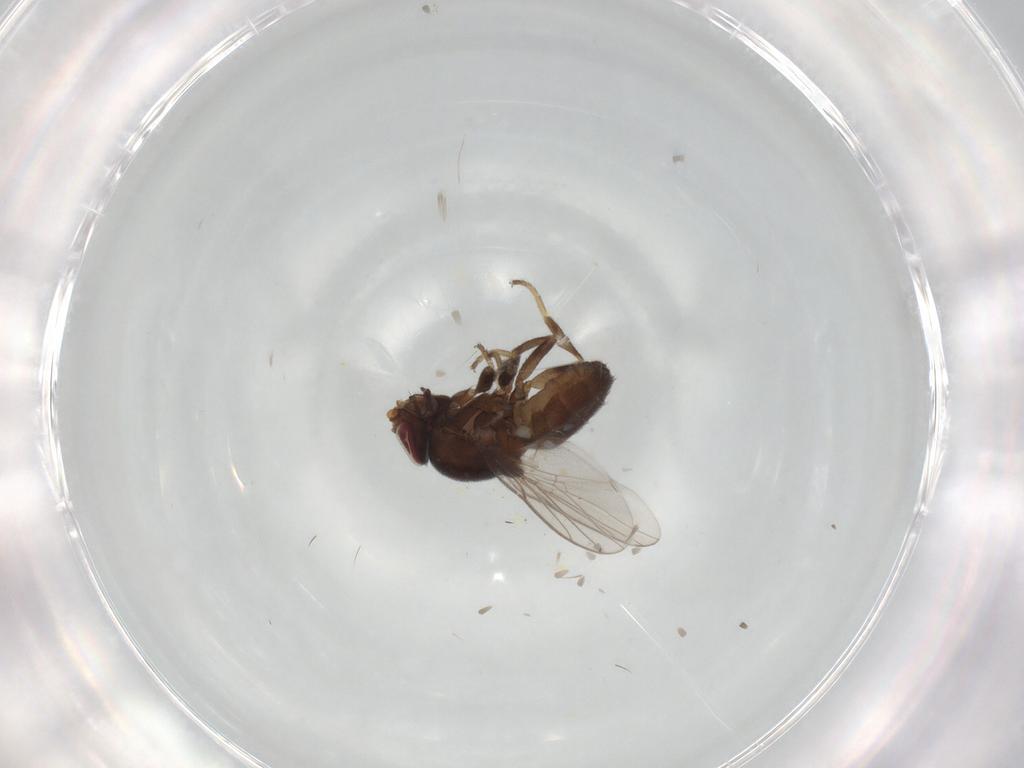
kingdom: Animalia
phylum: Arthropoda
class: Insecta
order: Diptera
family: Chloropidae
